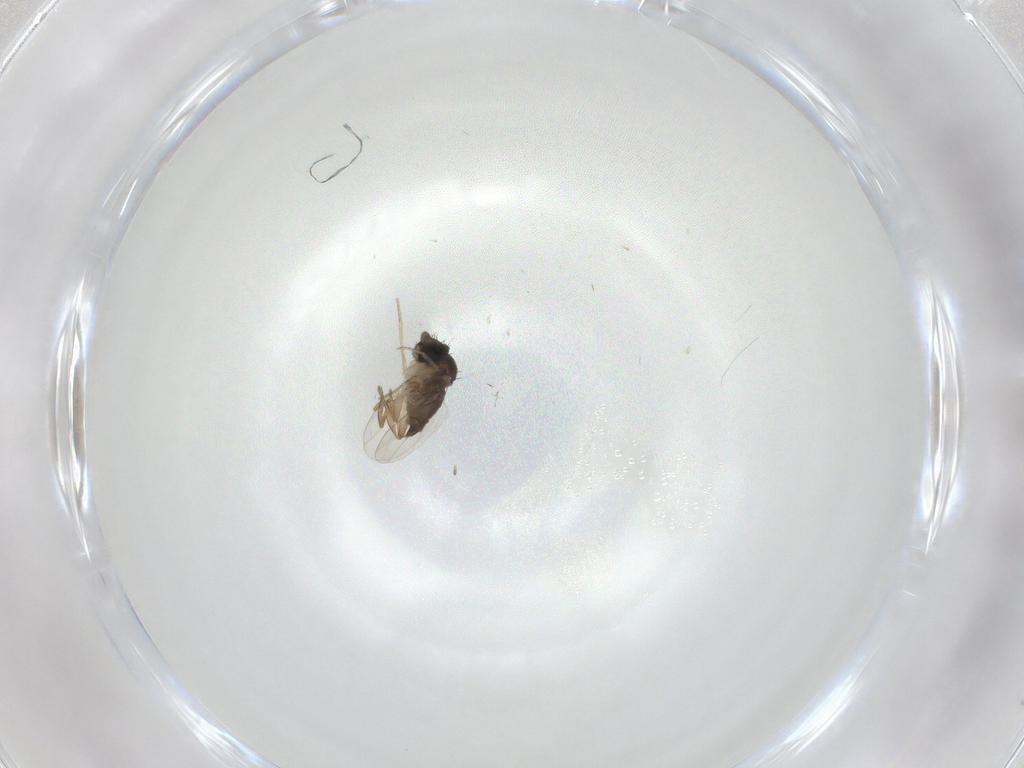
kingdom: Animalia
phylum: Arthropoda
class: Insecta
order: Diptera
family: Phoridae
